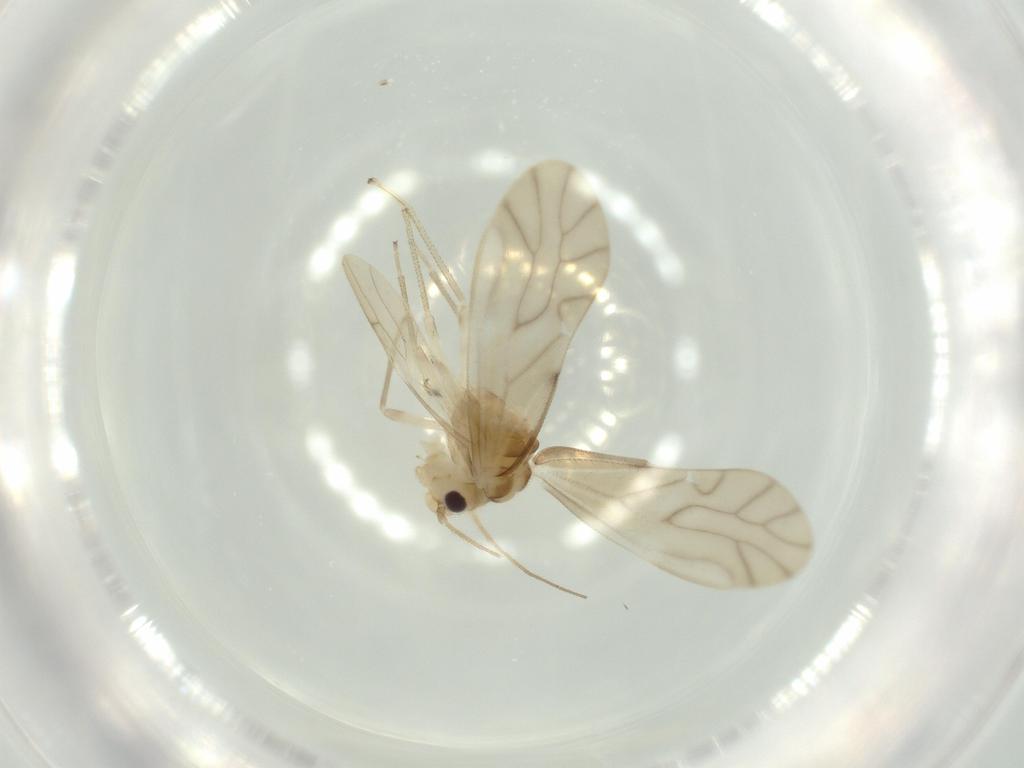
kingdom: Animalia
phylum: Arthropoda
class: Insecta
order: Psocodea
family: Caeciliusidae
